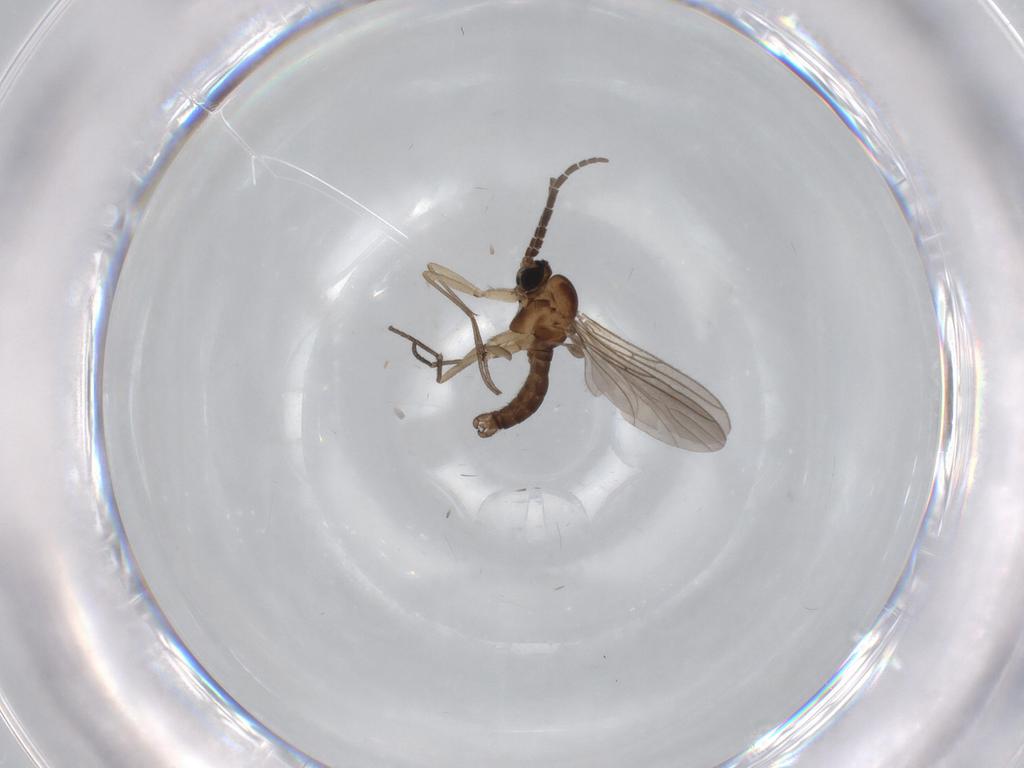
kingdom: Animalia
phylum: Arthropoda
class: Insecta
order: Diptera
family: Sciaridae
